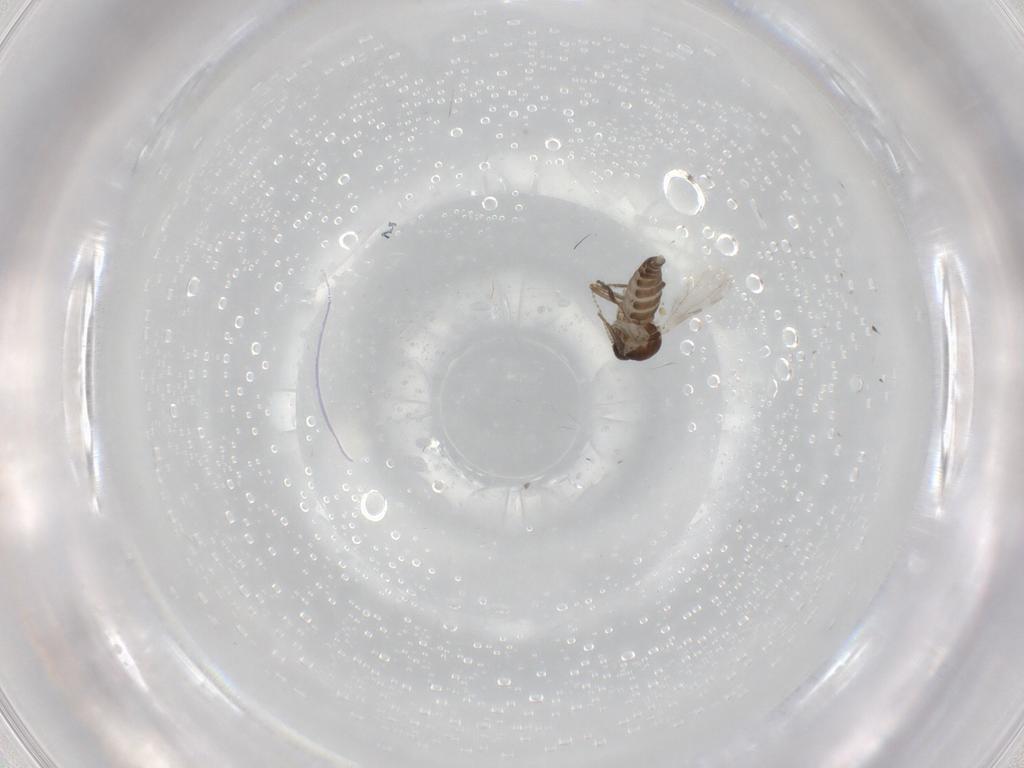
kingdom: Animalia
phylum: Arthropoda
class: Insecta
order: Diptera
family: Ceratopogonidae
